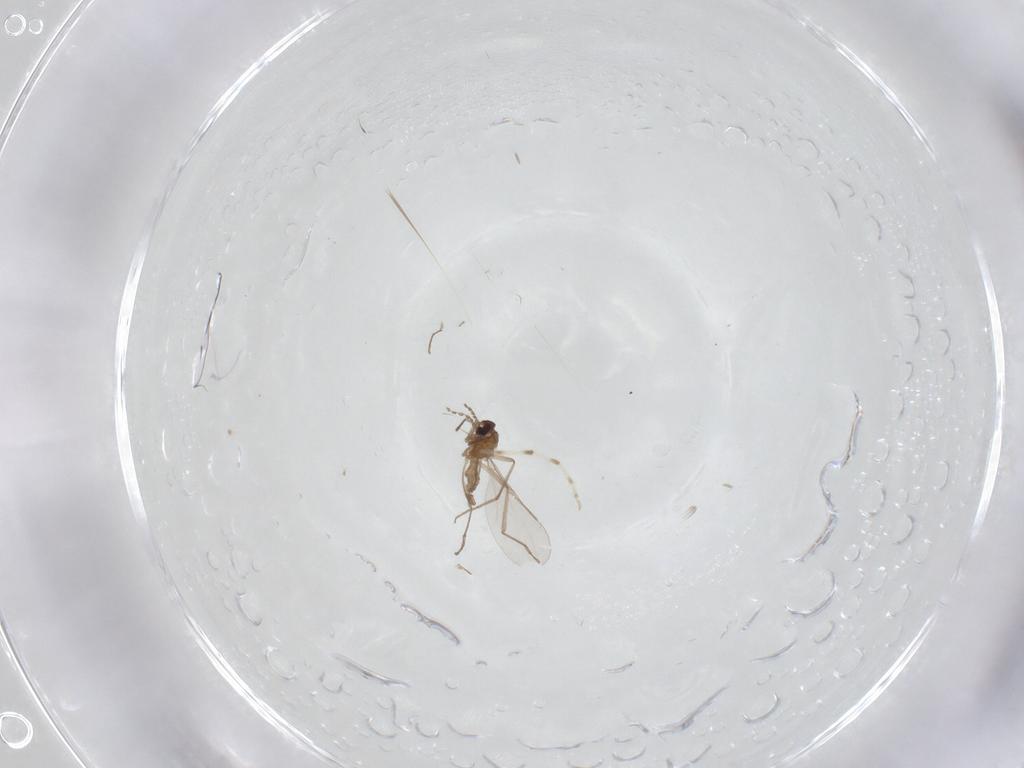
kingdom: Animalia
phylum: Arthropoda
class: Insecta
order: Diptera
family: Cecidomyiidae
